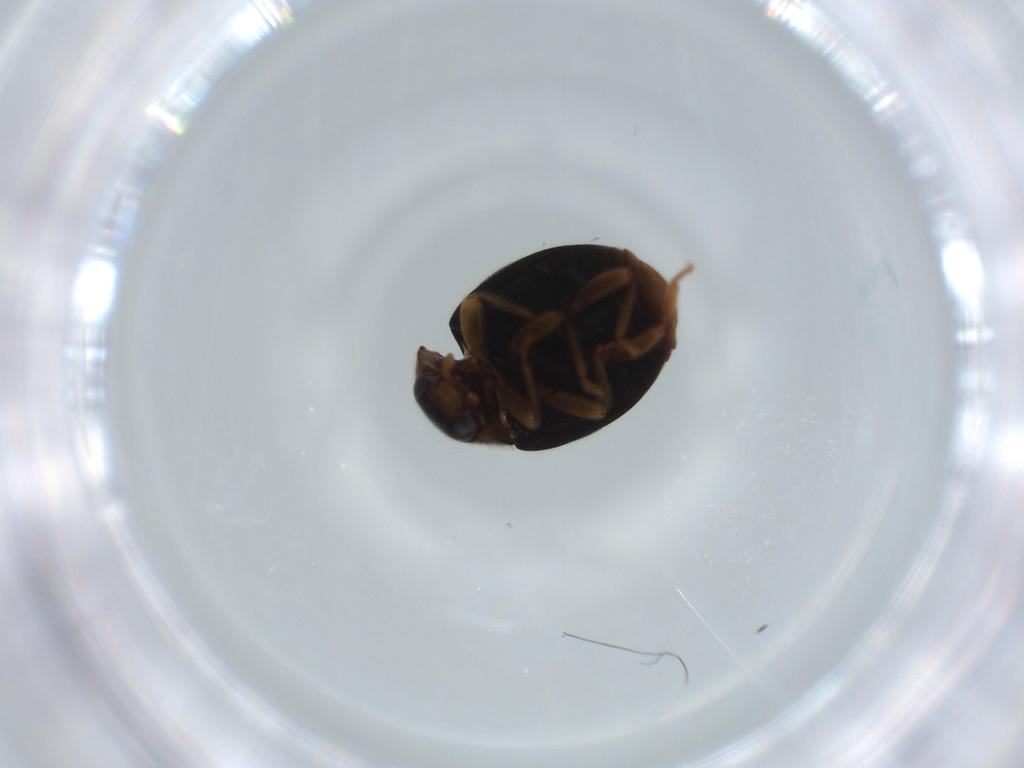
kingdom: Animalia
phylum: Arthropoda
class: Insecta
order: Coleoptera
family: Coccinellidae
